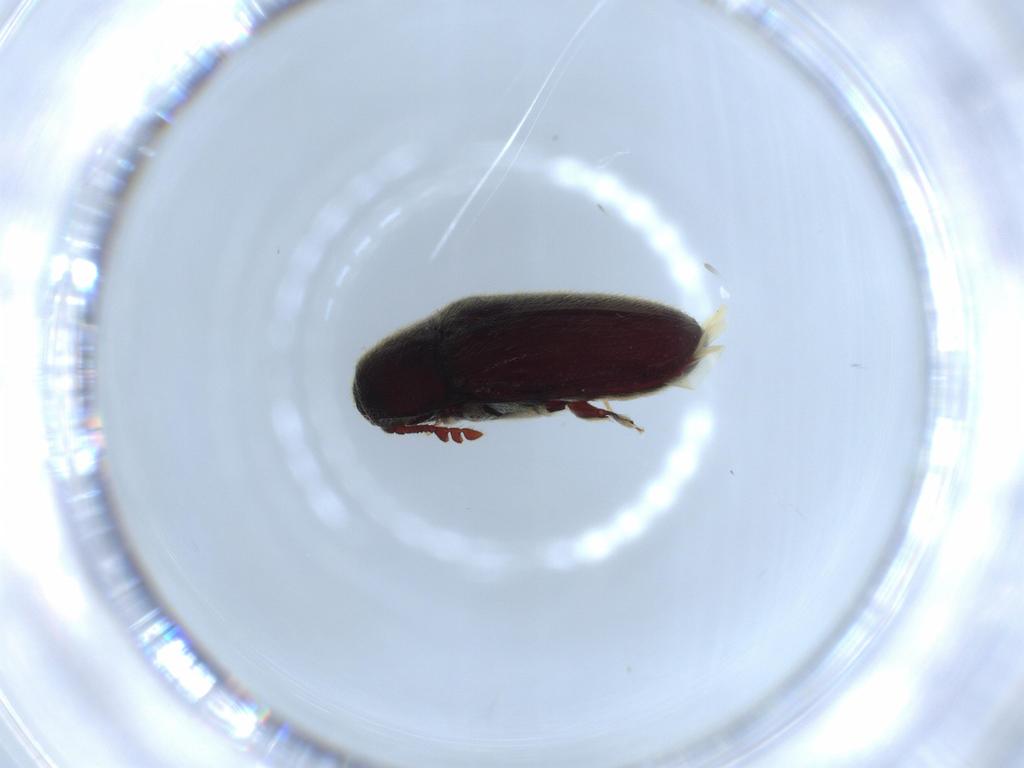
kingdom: Animalia
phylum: Arthropoda
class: Insecta
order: Coleoptera
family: Throscidae
